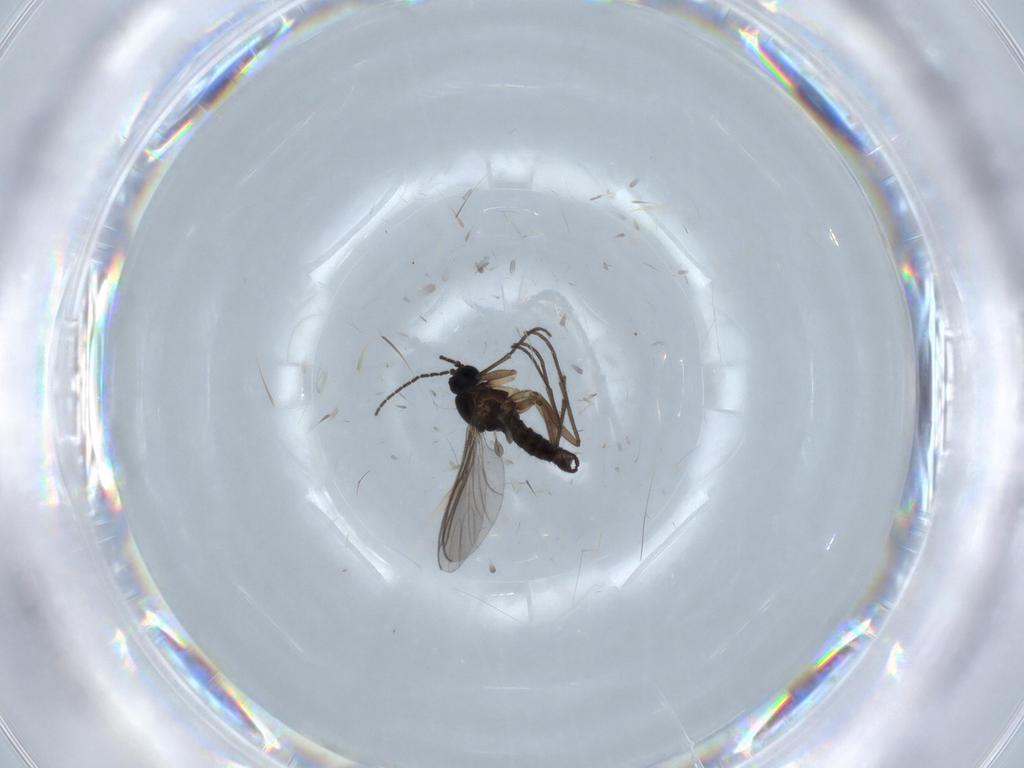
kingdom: Animalia
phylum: Arthropoda
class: Insecta
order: Diptera
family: Sciaridae
